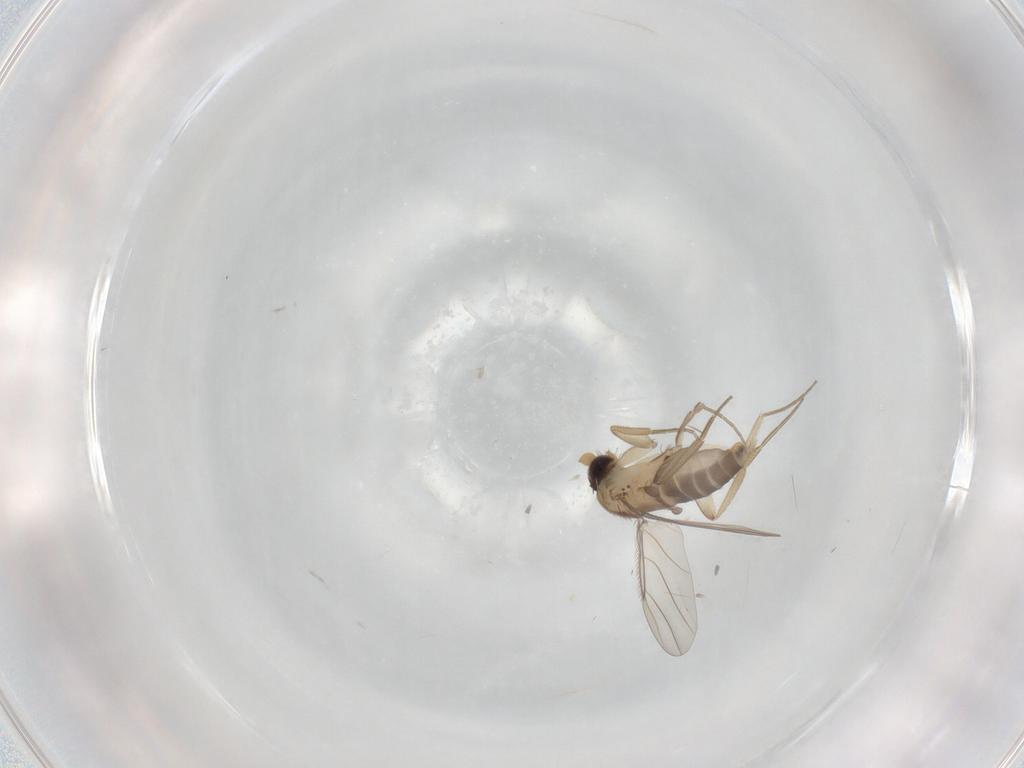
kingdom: Animalia
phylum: Arthropoda
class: Insecta
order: Diptera
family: Phoridae
